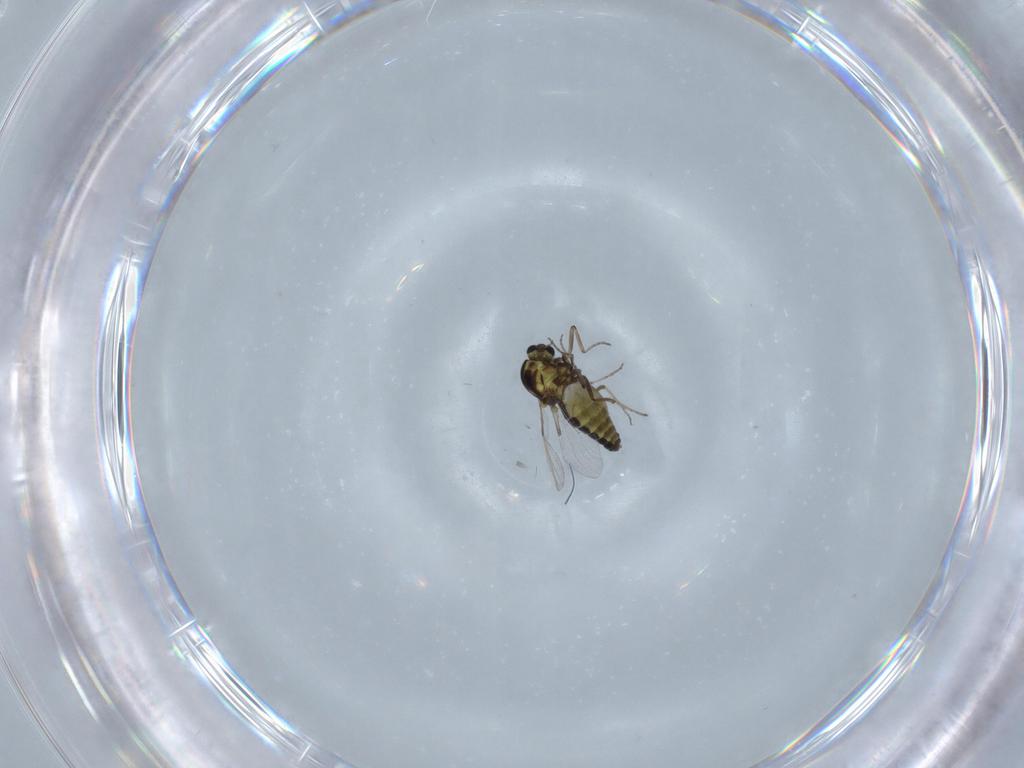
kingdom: Animalia
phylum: Arthropoda
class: Insecta
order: Diptera
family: Ceratopogonidae
